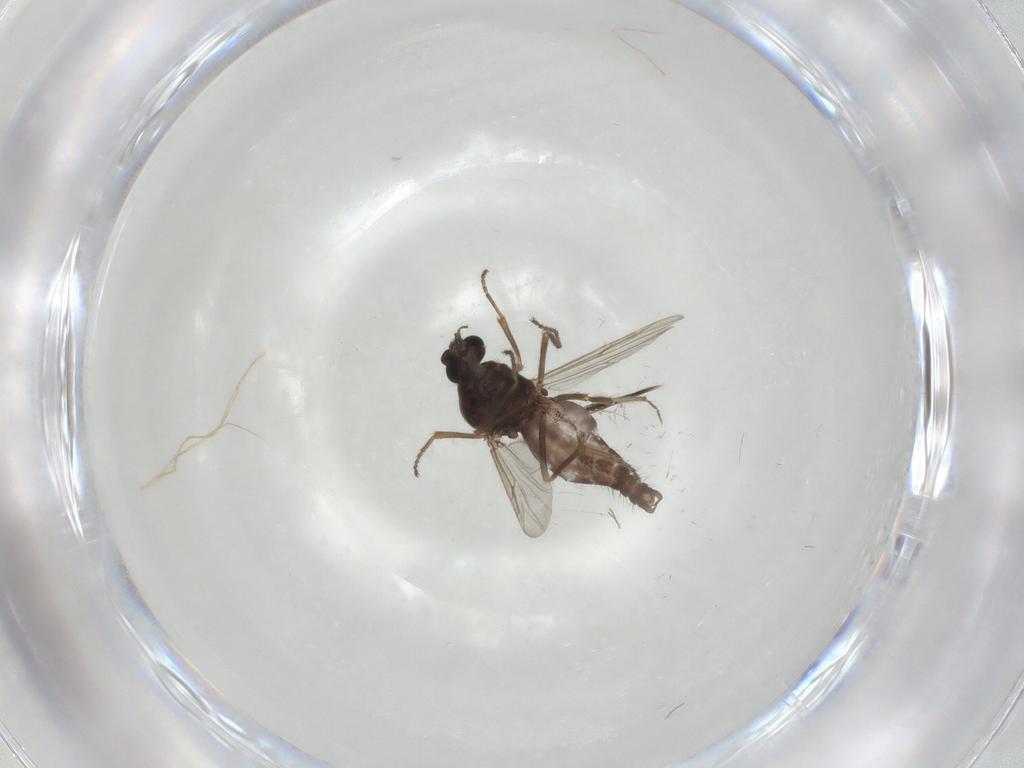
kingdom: Animalia
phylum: Arthropoda
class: Insecta
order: Diptera
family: Ceratopogonidae
